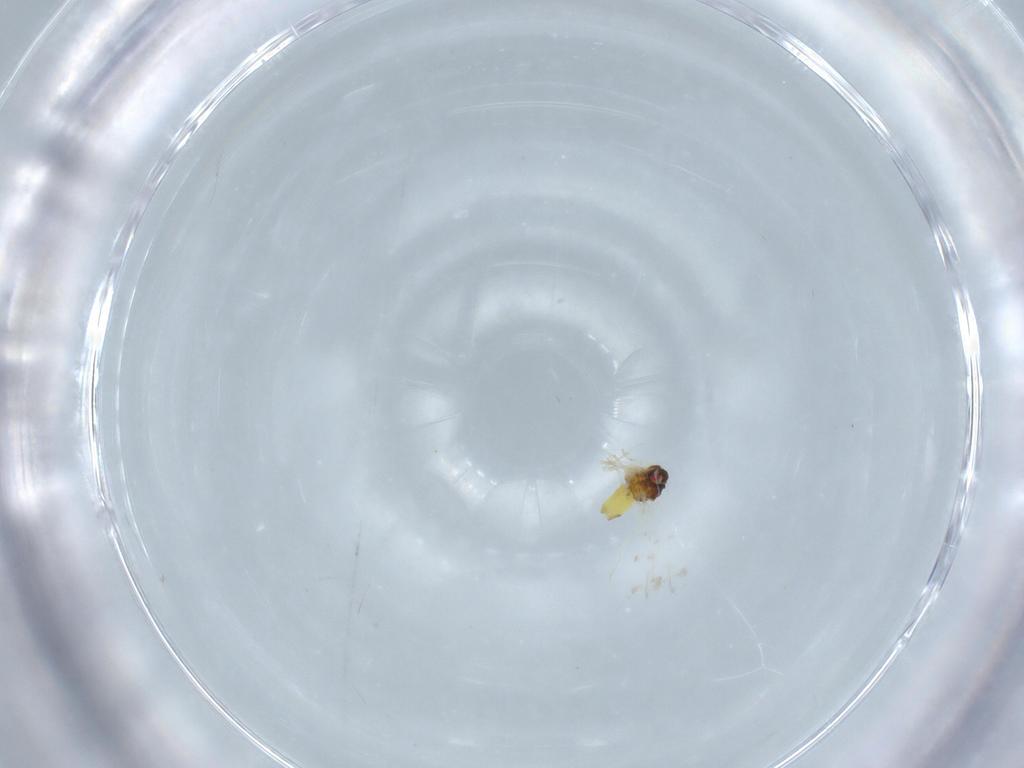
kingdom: Animalia
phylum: Arthropoda
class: Insecta
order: Hemiptera
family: Aleyrodidae
